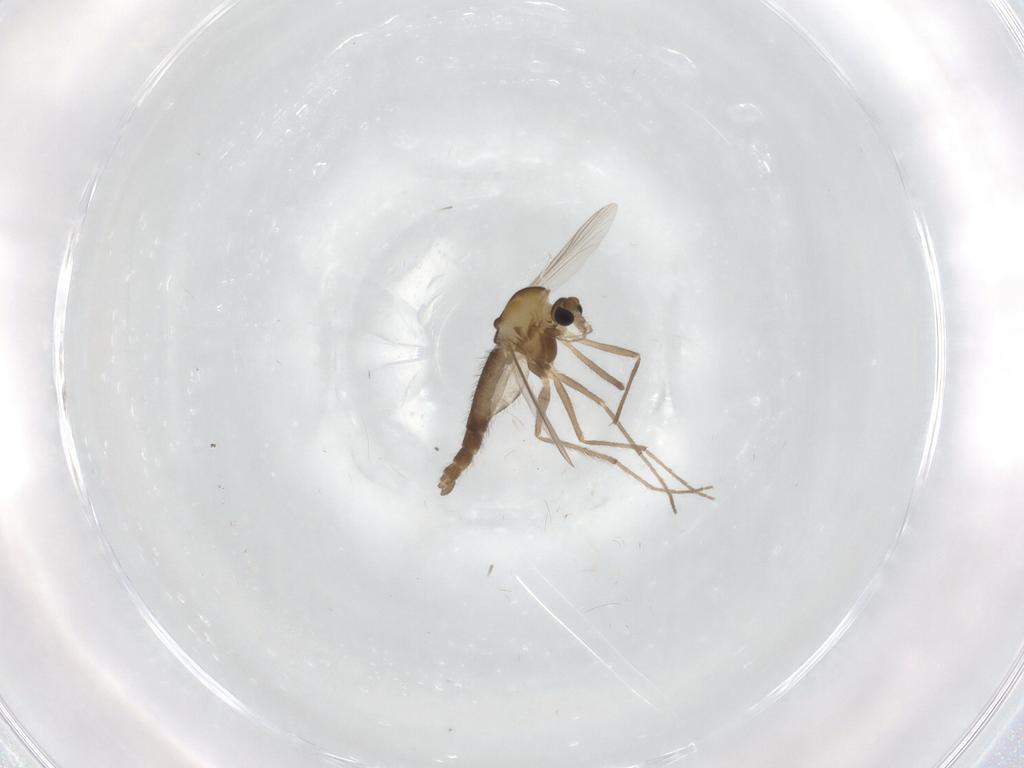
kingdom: Animalia
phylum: Arthropoda
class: Insecta
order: Diptera
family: Chironomidae
